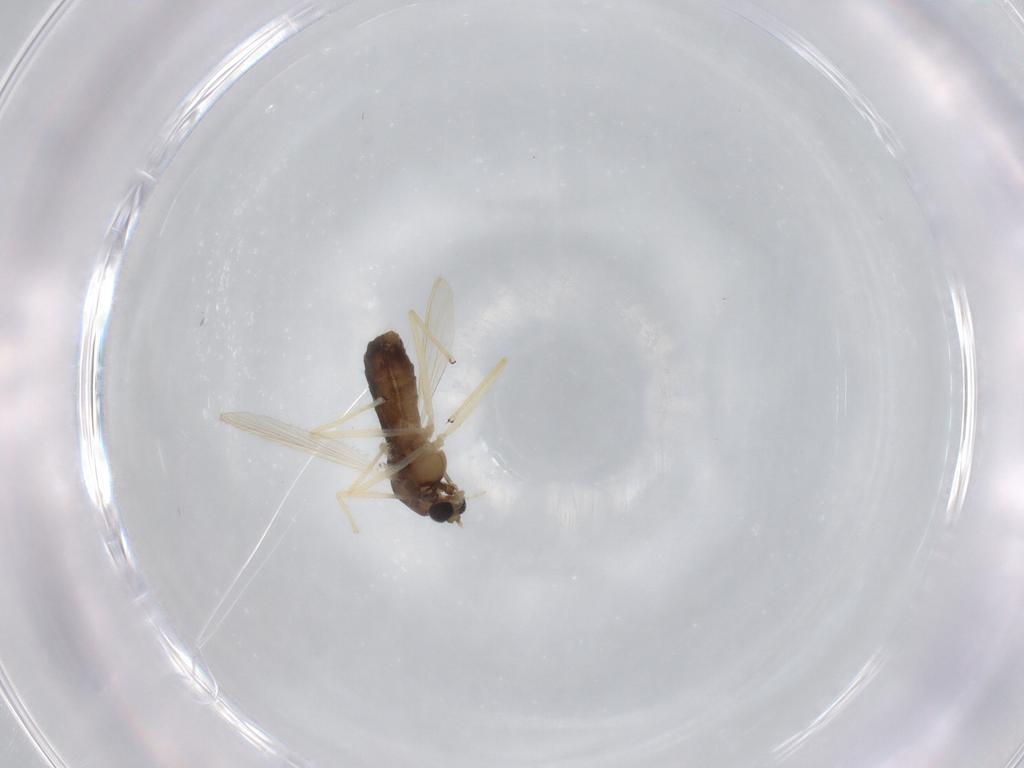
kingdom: Animalia
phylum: Arthropoda
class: Insecta
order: Diptera
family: Chironomidae
